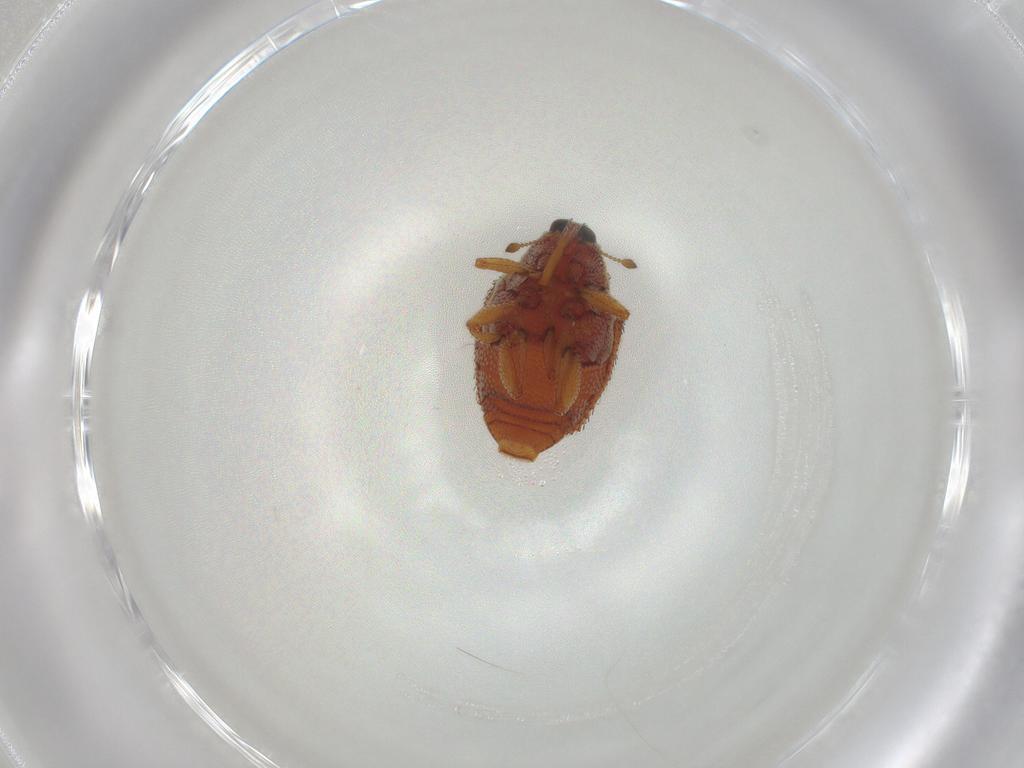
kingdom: Animalia
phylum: Arthropoda
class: Insecta
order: Coleoptera
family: Curculionidae
